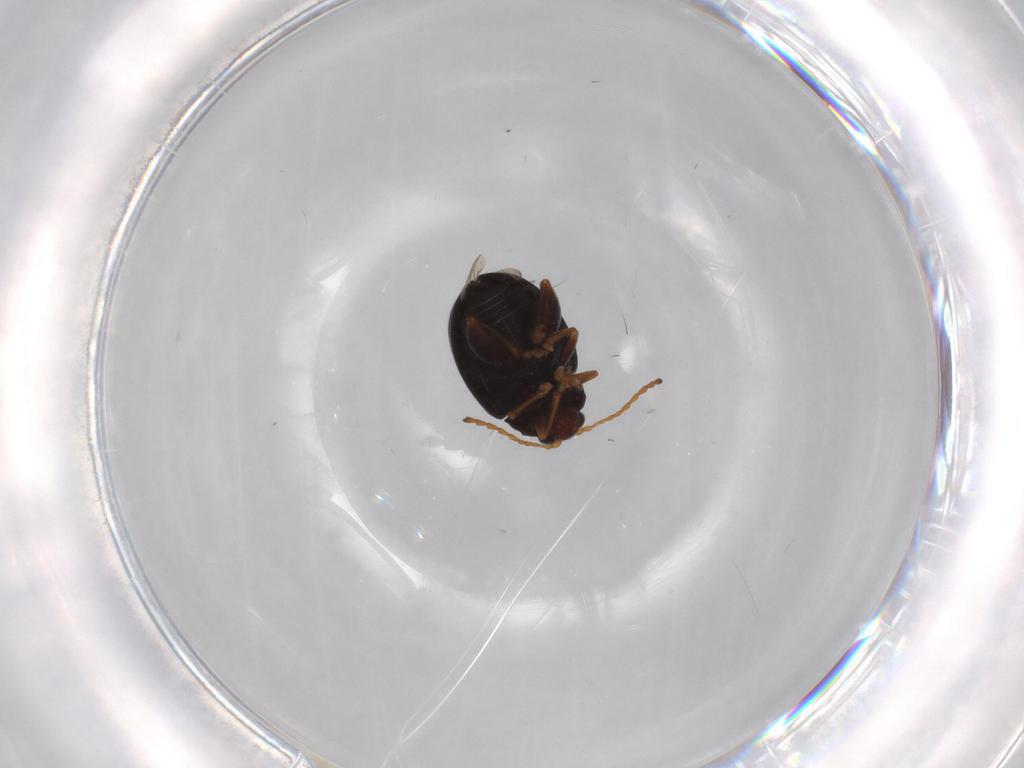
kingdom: Animalia
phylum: Arthropoda
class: Insecta
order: Coleoptera
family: Chrysomelidae
